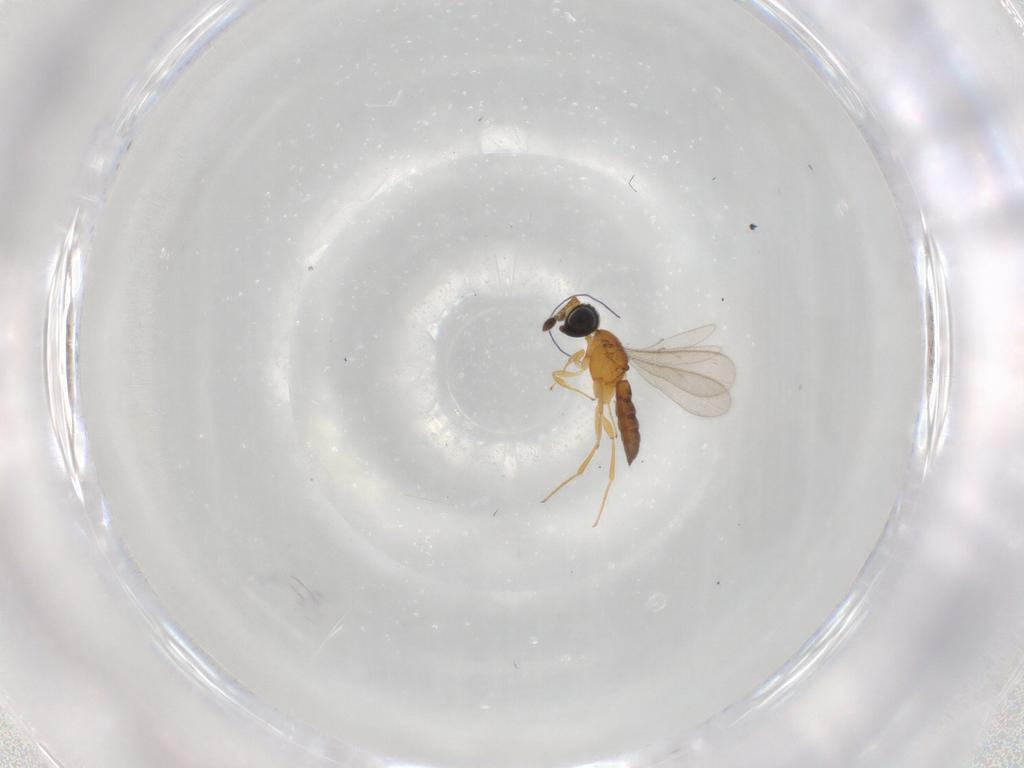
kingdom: Animalia
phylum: Arthropoda
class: Insecta
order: Hymenoptera
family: Scelionidae
